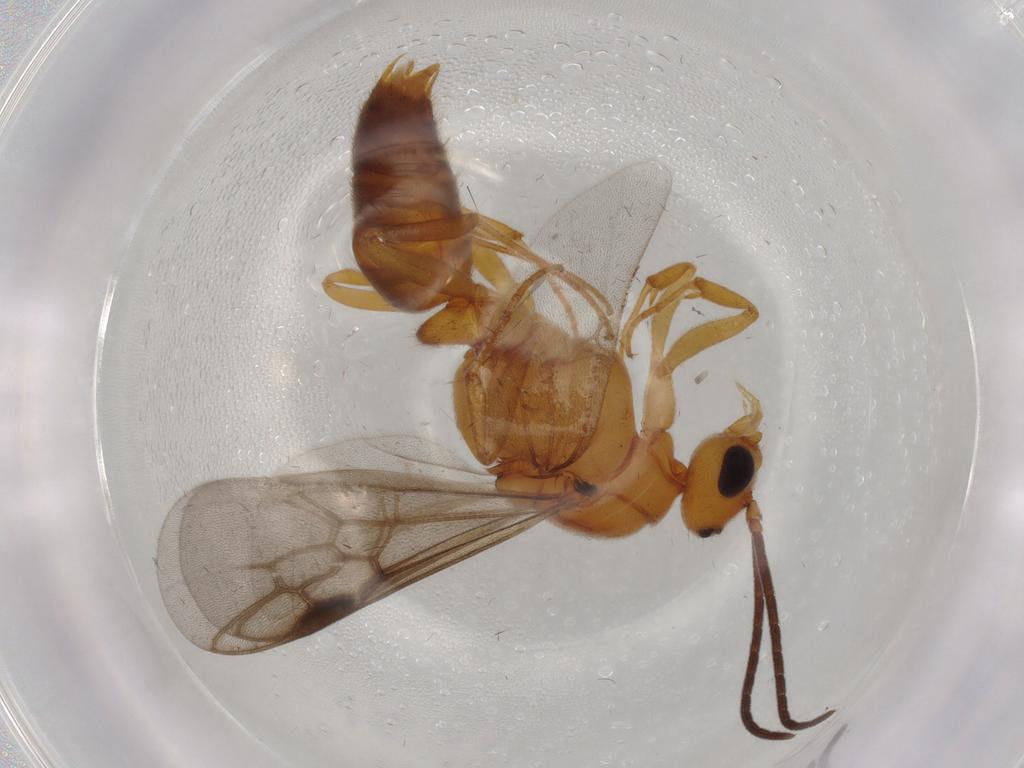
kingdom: Animalia
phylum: Arthropoda
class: Insecta
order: Hymenoptera
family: Formicidae
